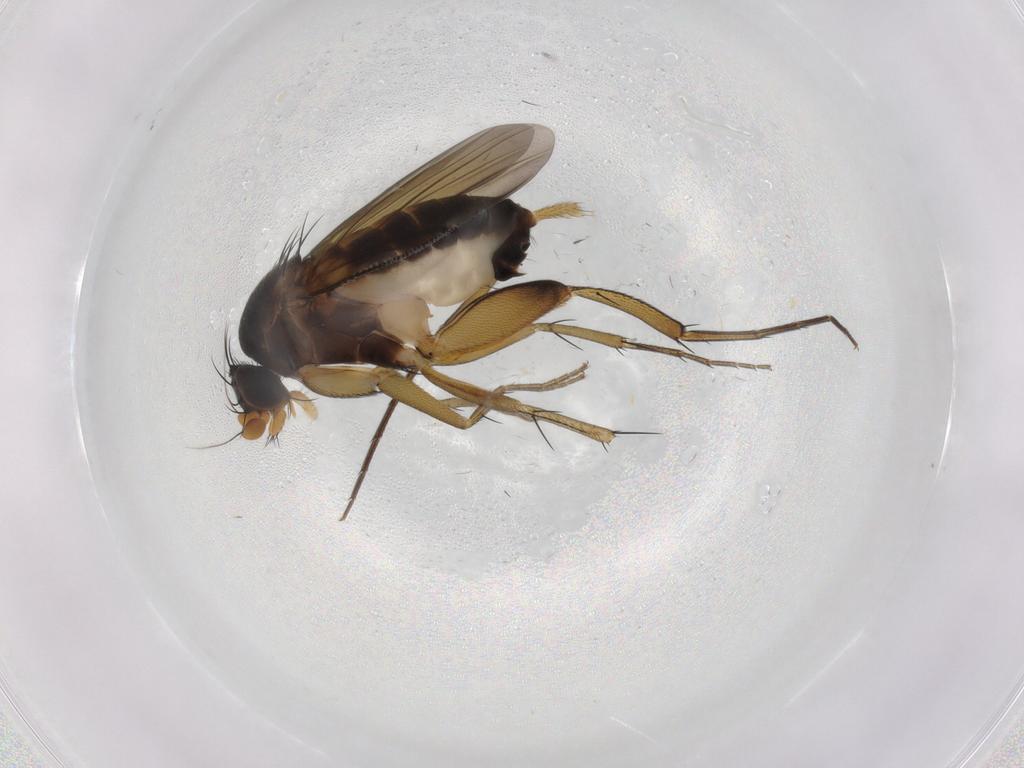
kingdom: Animalia
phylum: Arthropoda
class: Insecta
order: Diptera
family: Phoridae
